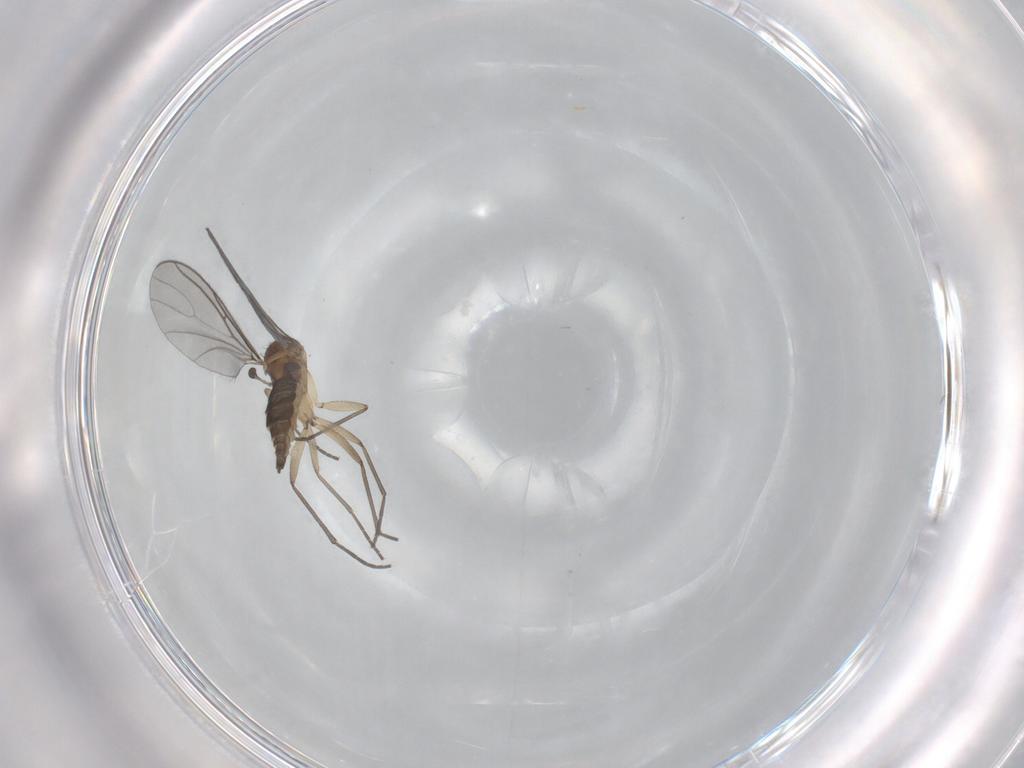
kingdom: Animalia
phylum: Arthropoda
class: Insecta
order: Diptera
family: Sciaridae
